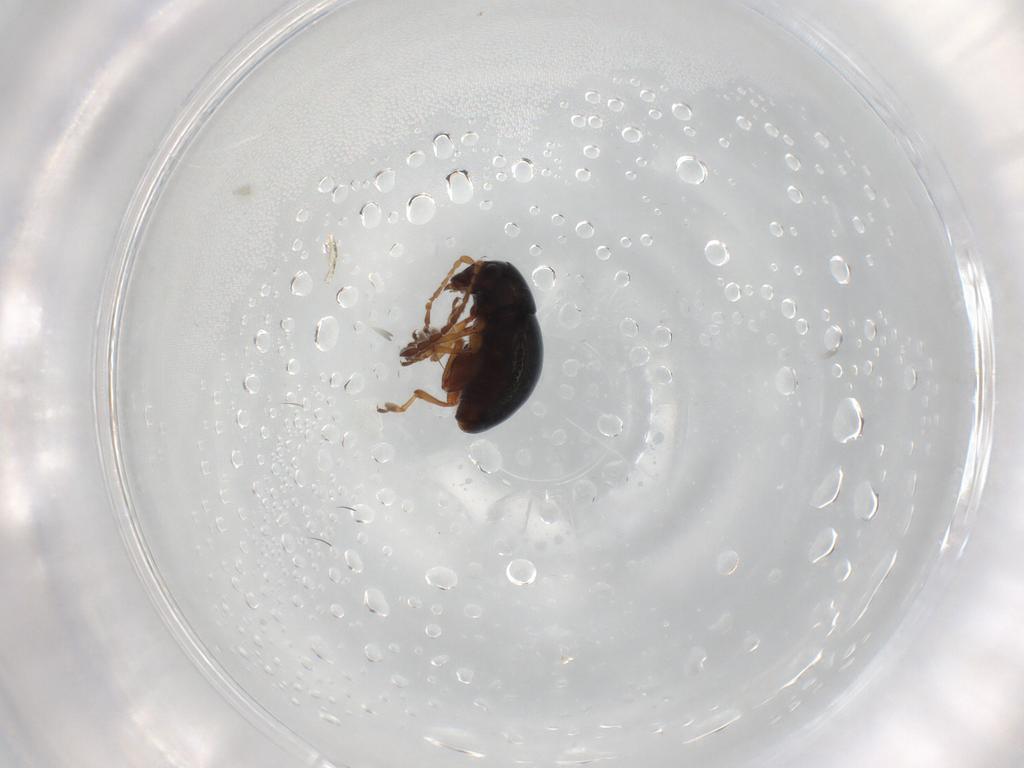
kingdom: Animalia
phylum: Arthropoda
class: Insecta
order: Coleoptera
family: Chrysomelidae
